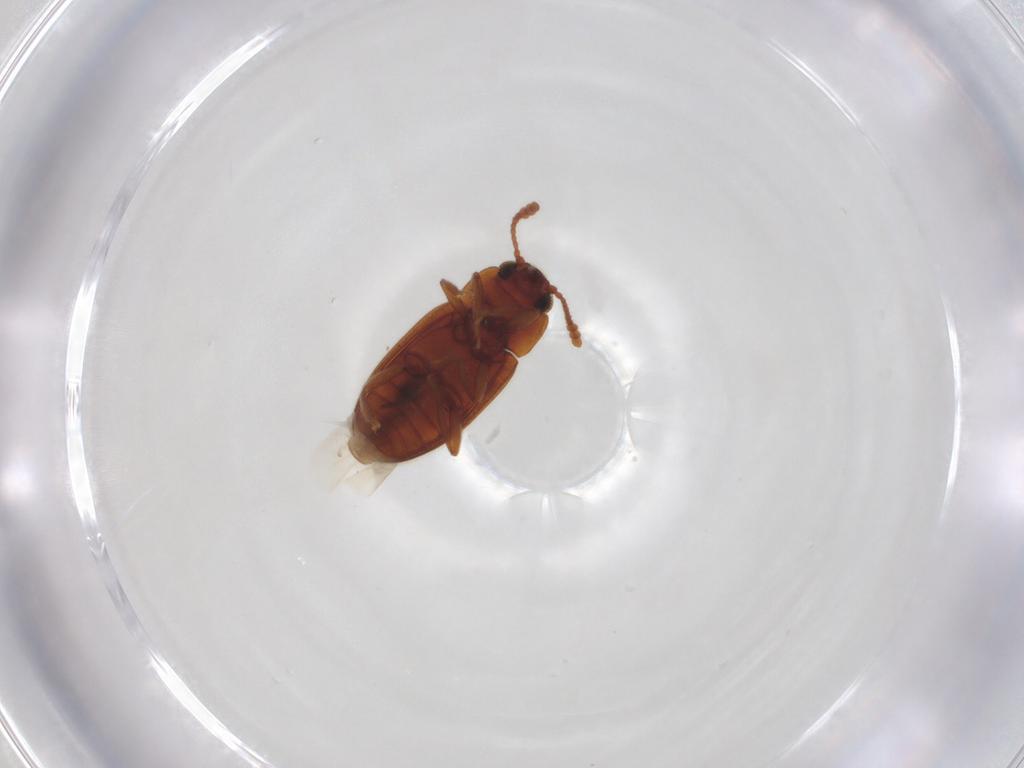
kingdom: Animalia
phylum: Arthropoda
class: Insecta
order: Coleoptera
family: Erotylidae
